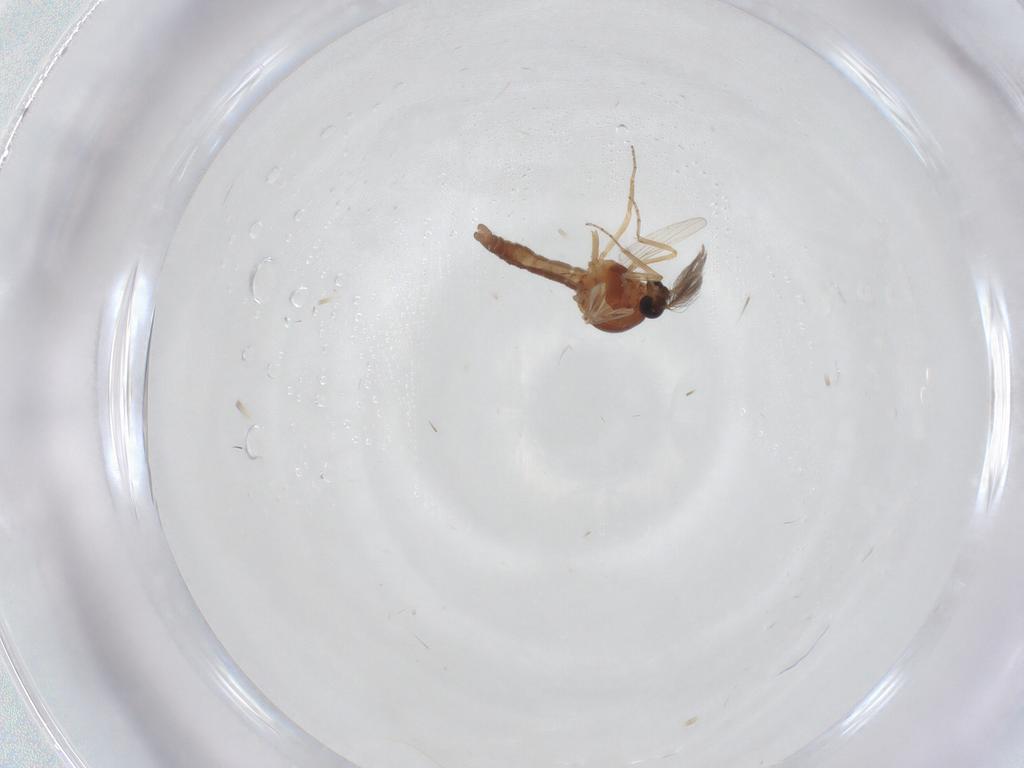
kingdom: Animalia
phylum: Arthropoda
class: Insecta
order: Diptera
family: Ceratopogonidae
